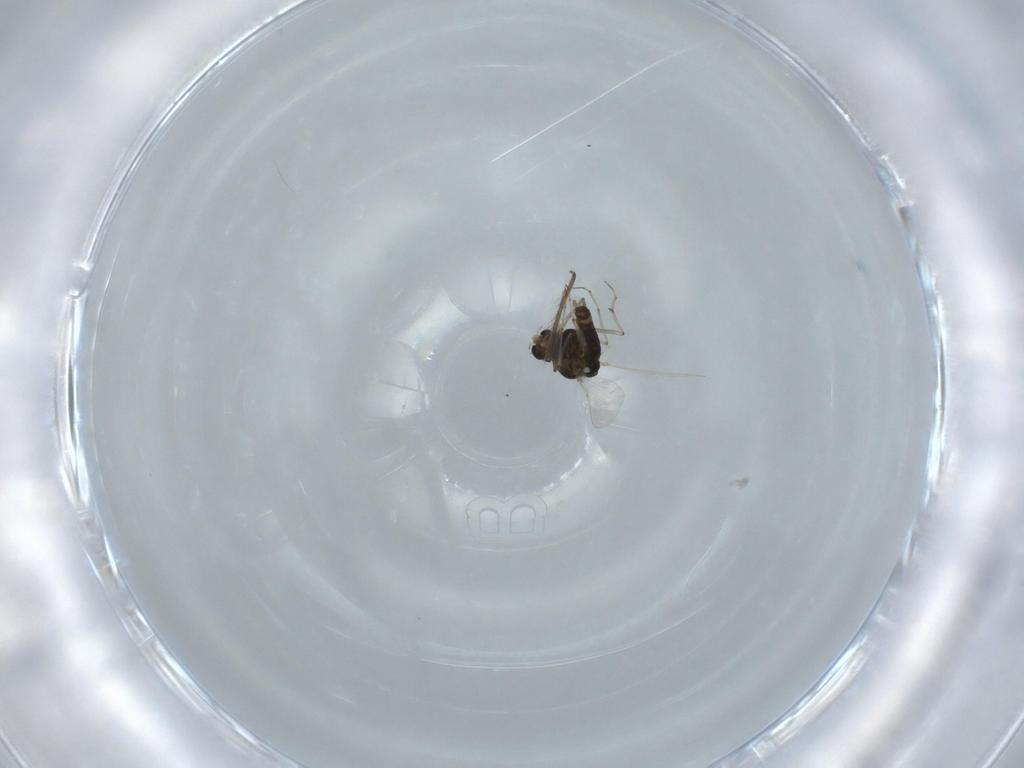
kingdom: Animalia
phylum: Arthropoda
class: Insecta
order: Diptera
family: Chironomidae
